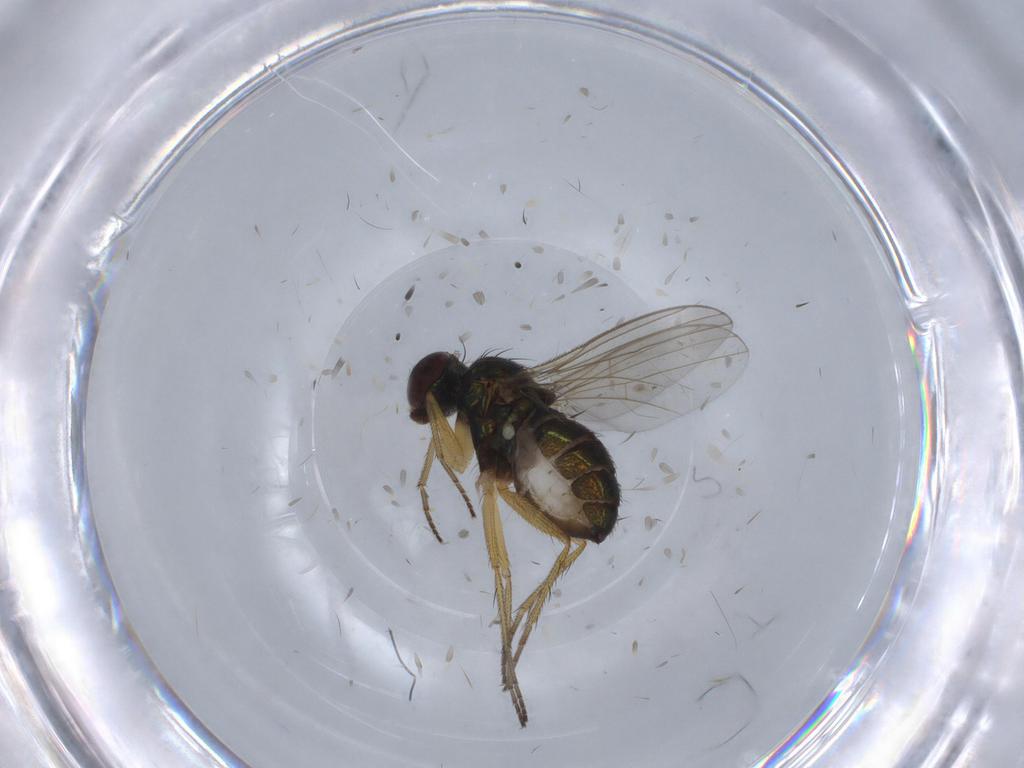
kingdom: Animalia
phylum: Arthropoda
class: Insecta
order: Diptera
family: Dolichopodidae
